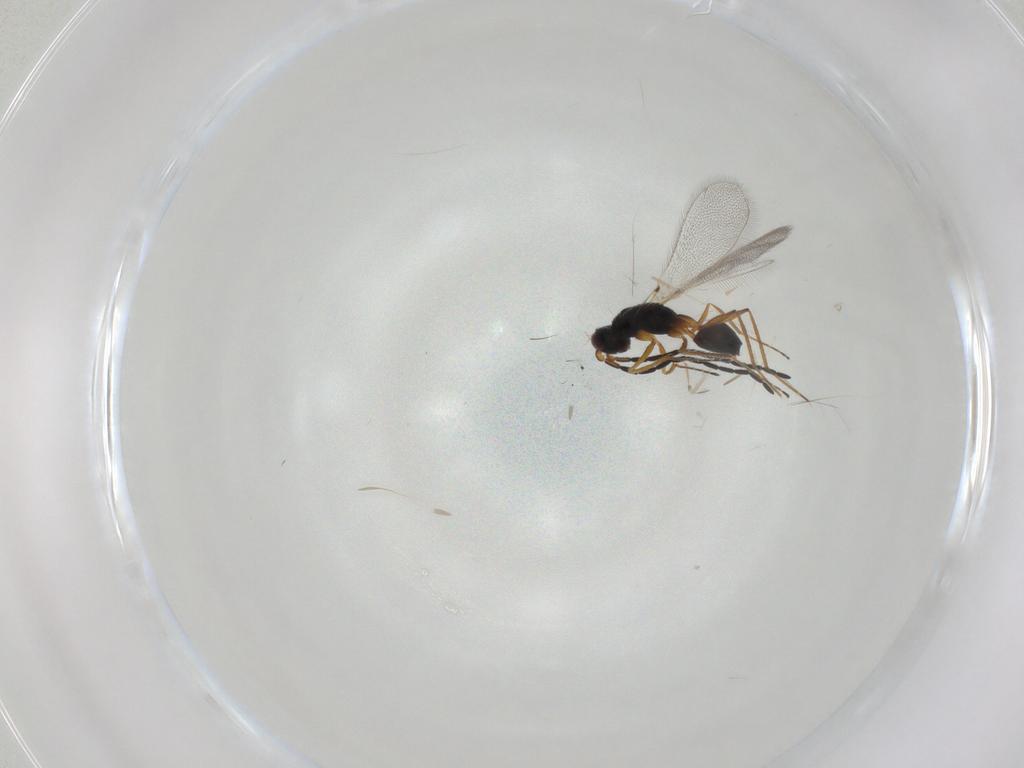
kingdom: Animalia
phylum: Arthropoda
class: Insecta
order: Hymenoptera
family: Mymaridae
